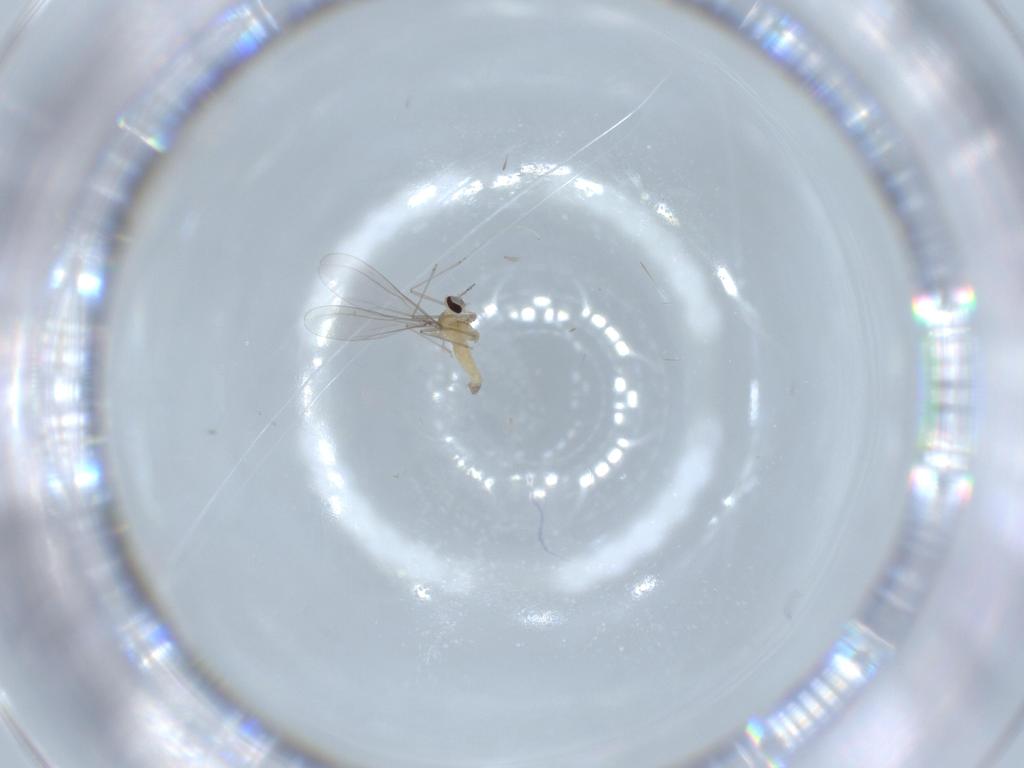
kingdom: Animalia
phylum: Arthropoda
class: Insecta
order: Diptera
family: Cecidomyiidae
